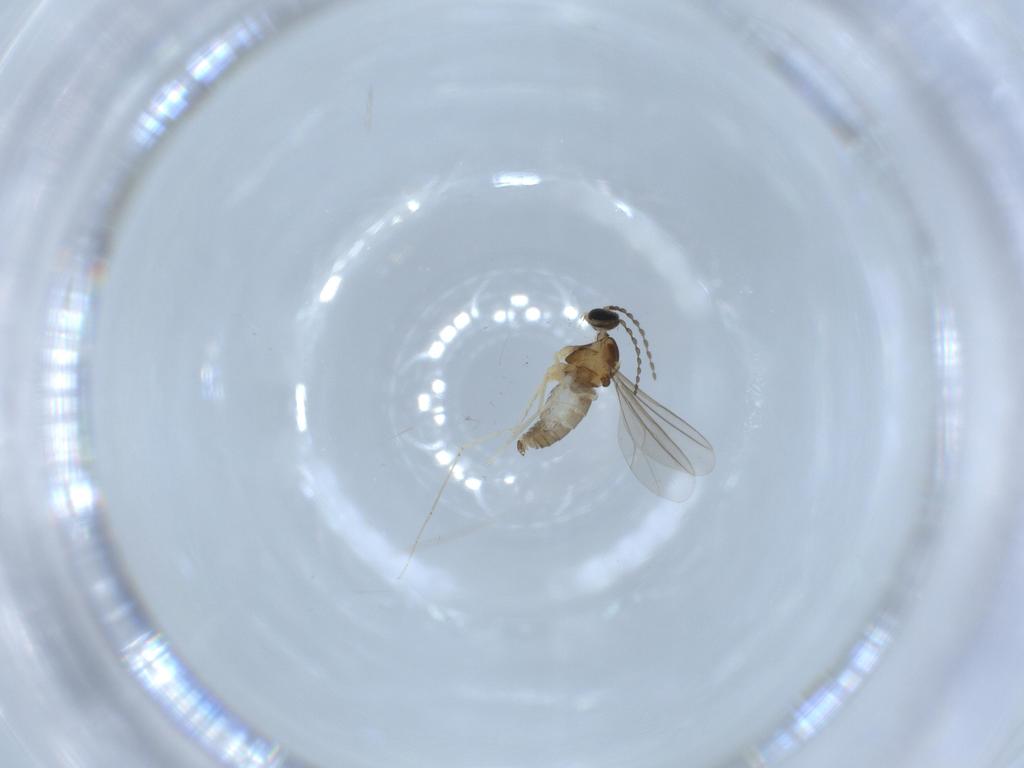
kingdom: Animalia
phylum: Arthropoda
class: Insecta
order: Diptera
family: Cecidomyiidae
